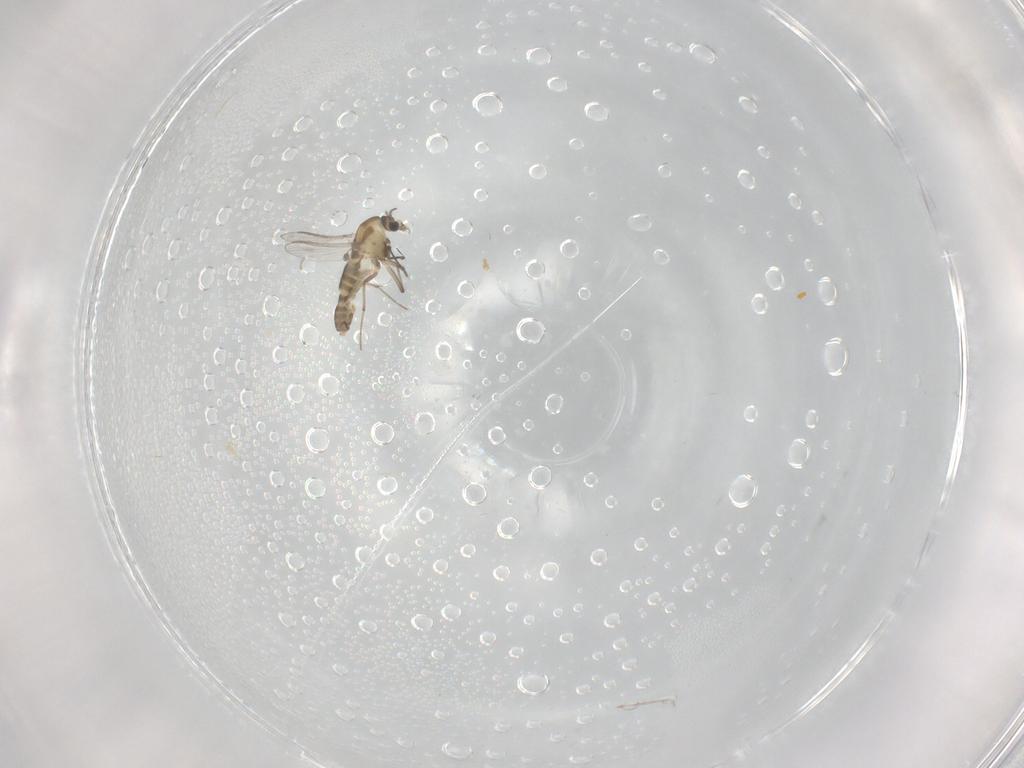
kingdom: Animalia
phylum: Arthropoda
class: Insecta
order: Diptera
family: Chironomidae
